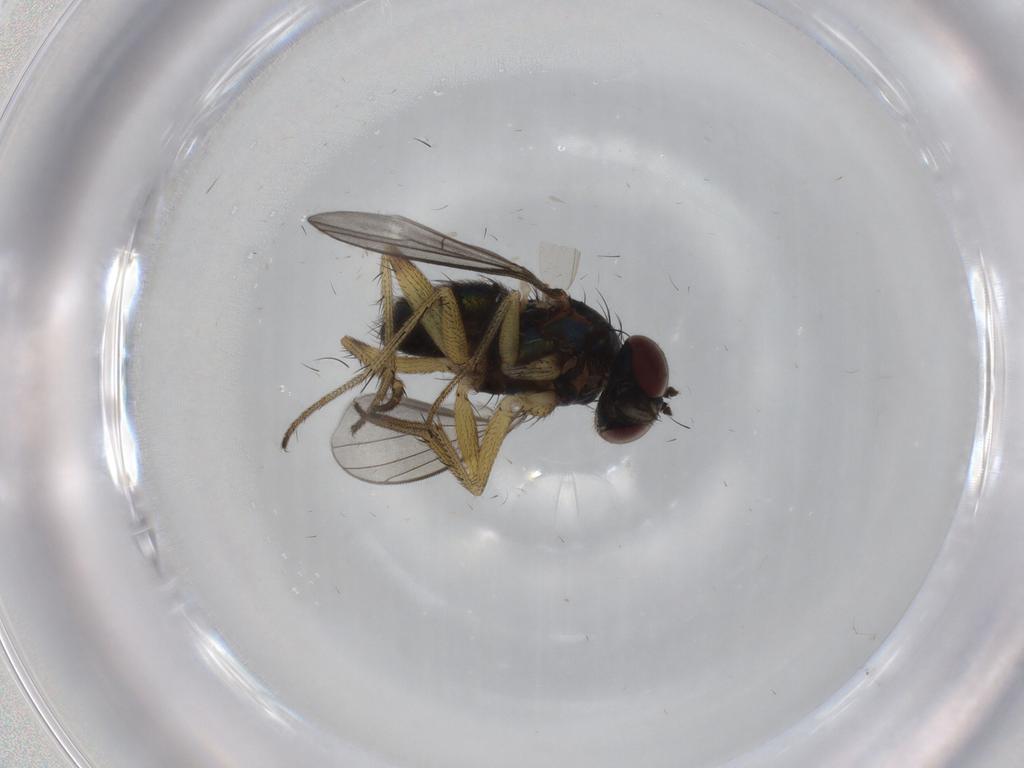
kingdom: Animalia
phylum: Arthropoda
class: Insecta
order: Diptera
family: Dolichopodidae
